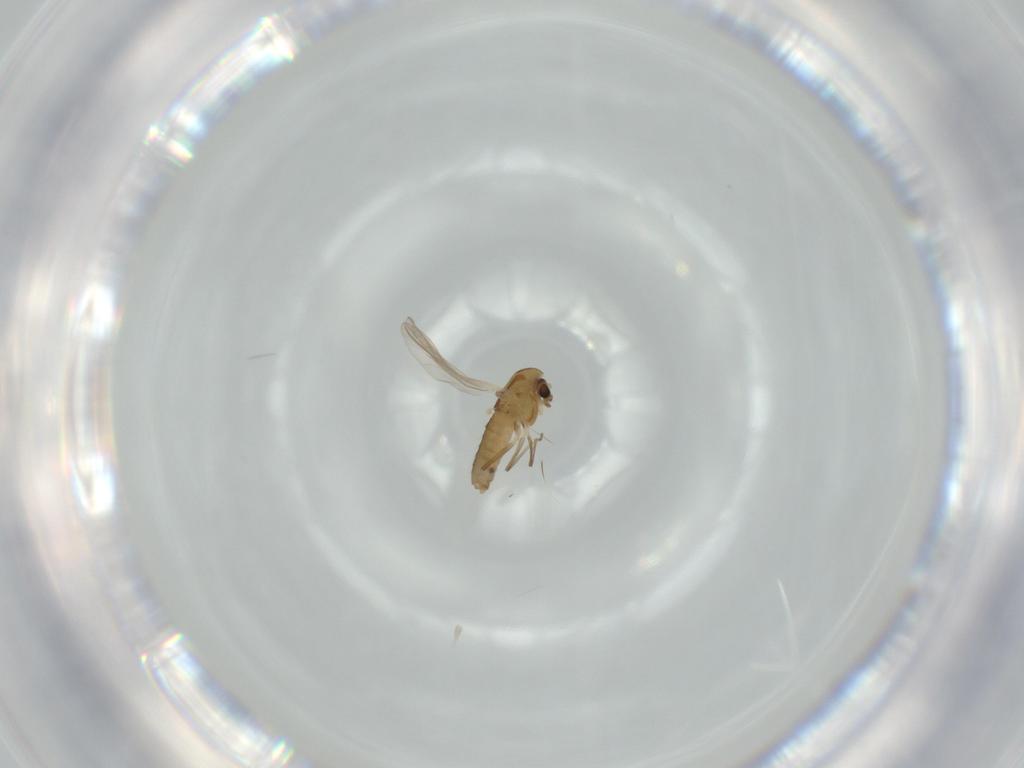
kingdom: Animalia
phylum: Arthropoda
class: Insecta
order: Diptera
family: Chironomidae
